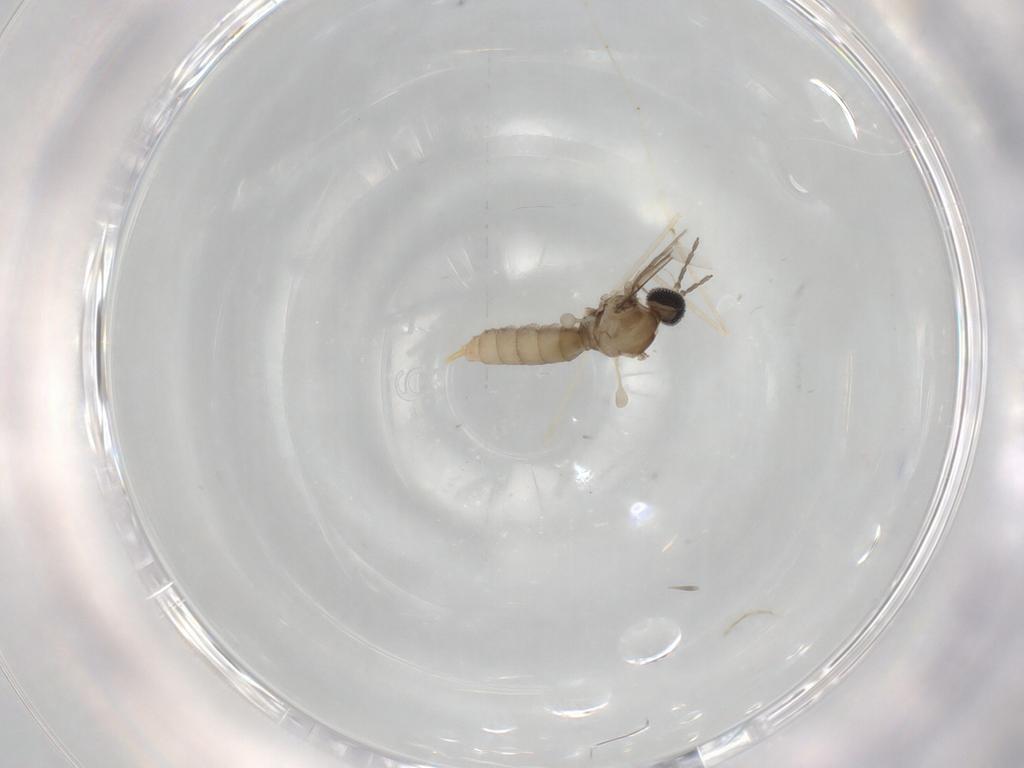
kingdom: Animalia
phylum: Arthropoda
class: Insecta
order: Diptera
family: Cecidomyiidae
